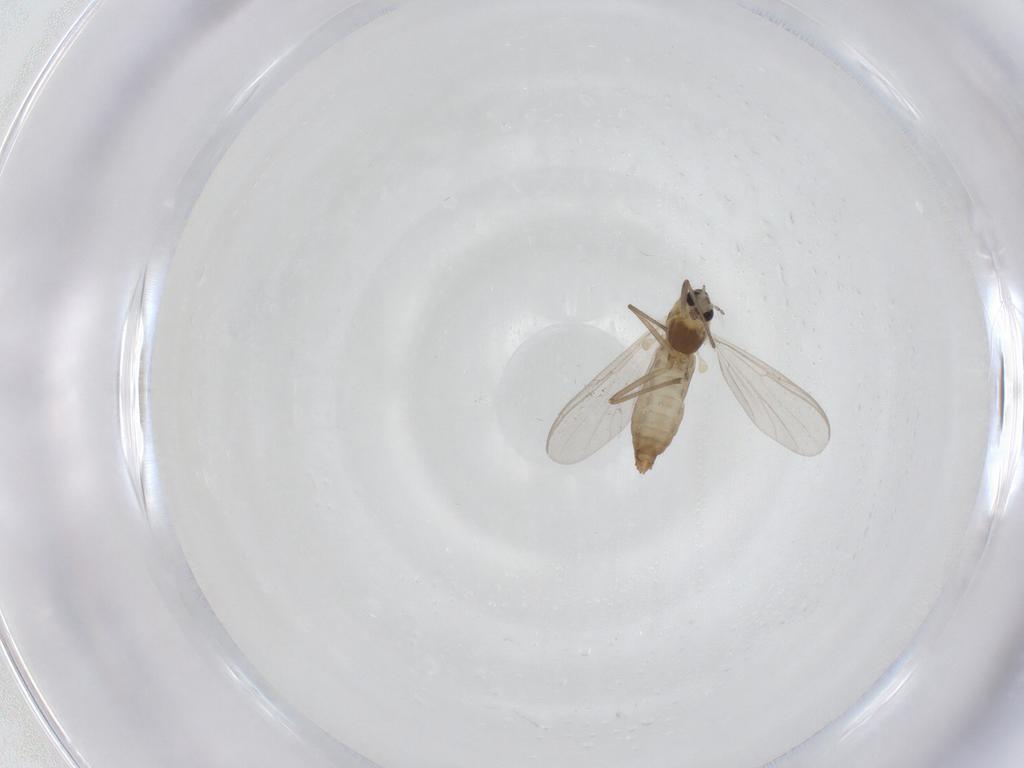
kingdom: Animalia
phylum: Arthropoda
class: Insecta
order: Diptera
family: Chironomidae
